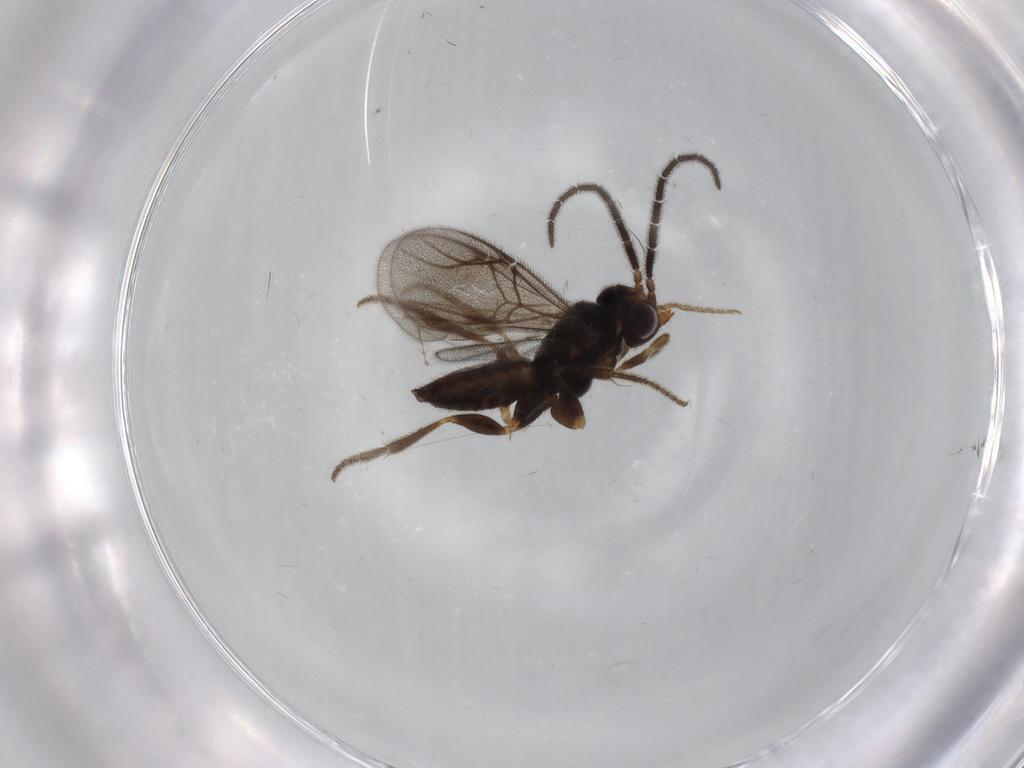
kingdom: Animalia
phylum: Arthropoda
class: Insecta
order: Hymenoptera
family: Dryinidae
